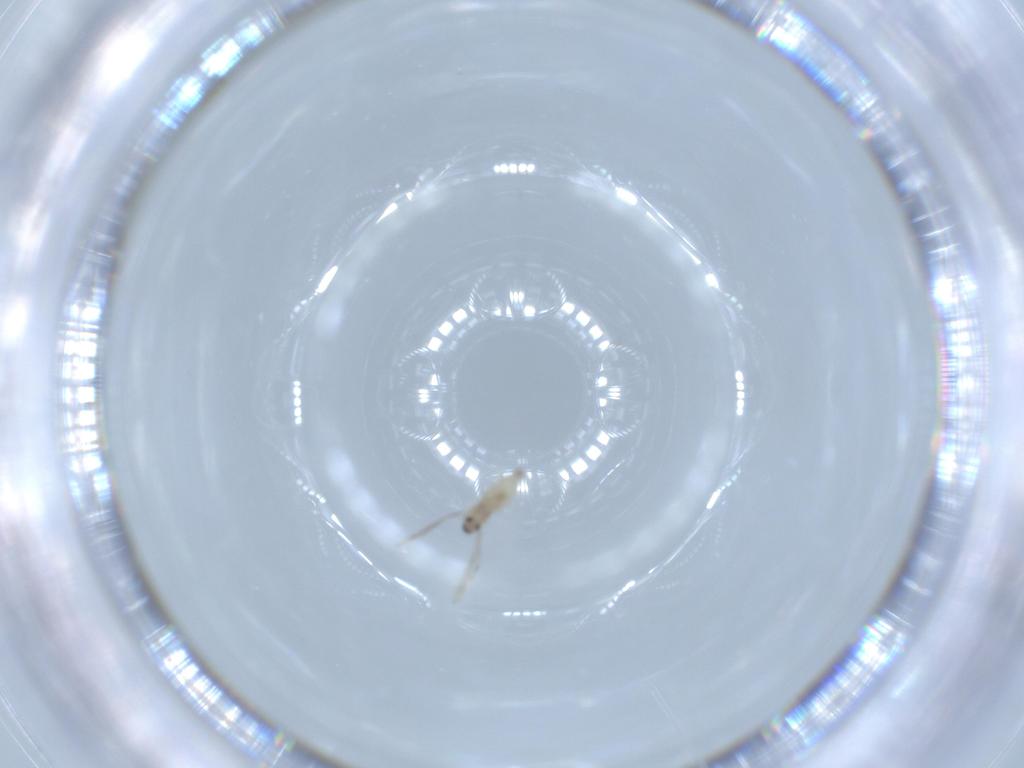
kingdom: Animalia
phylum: Arthropoda
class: Insecta
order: Diptera
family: Cecidomyiidae
